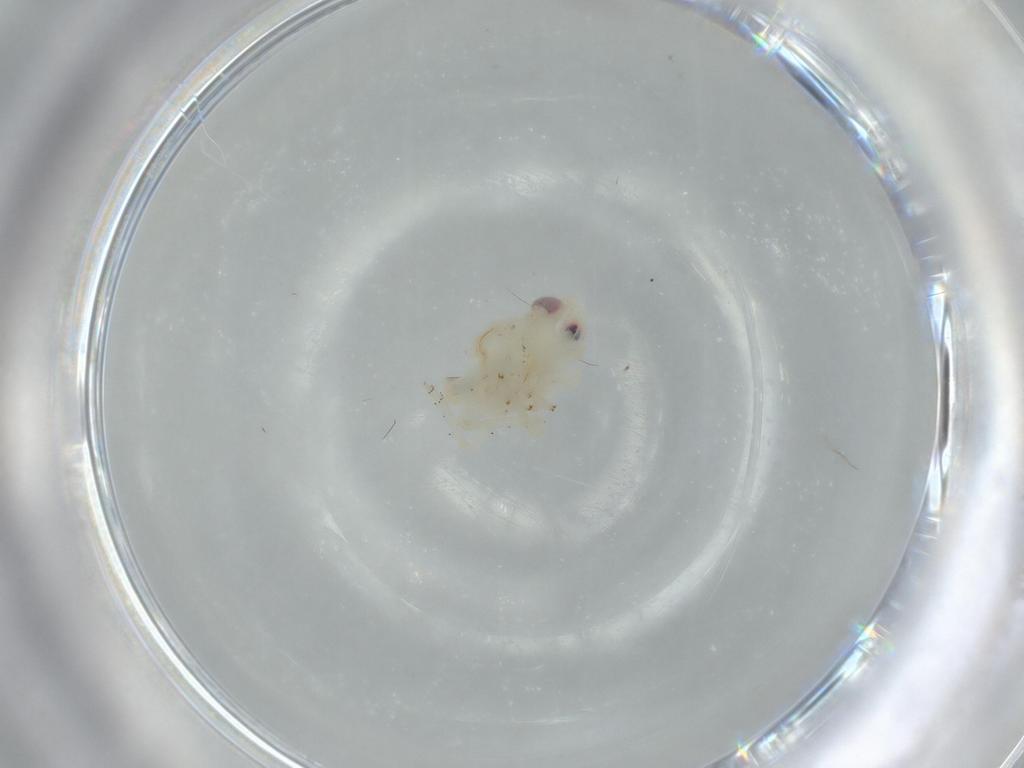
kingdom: Animalia
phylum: Arthropoda
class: Insecta
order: Hemiptera
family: Nogodinidae
